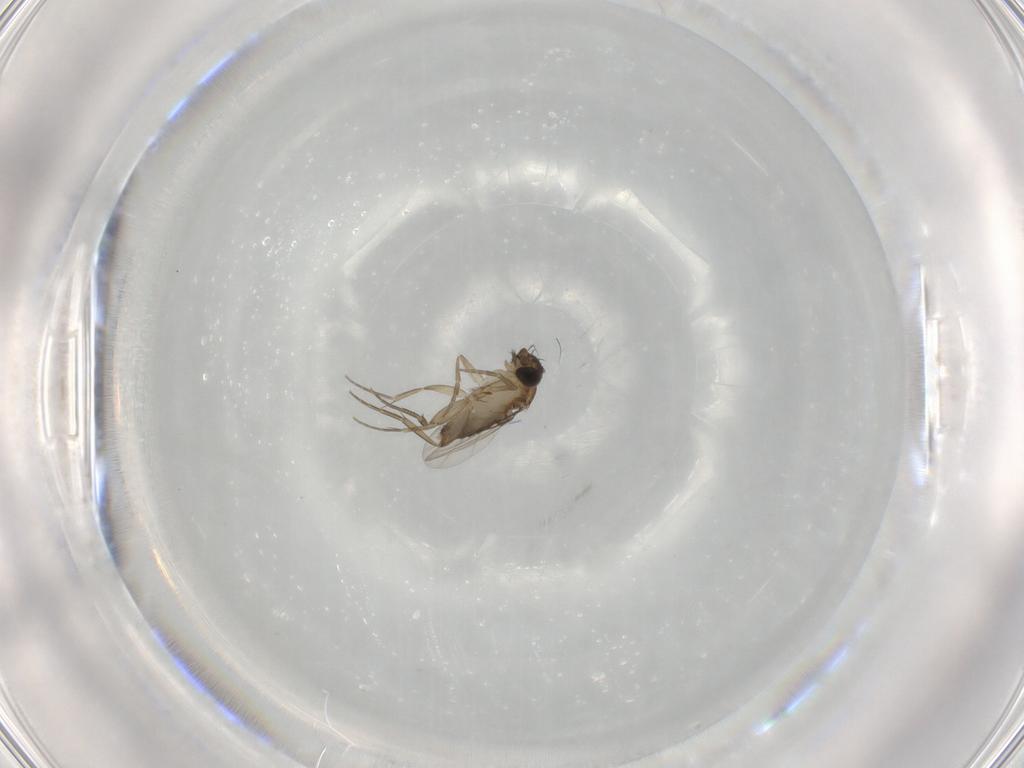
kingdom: Animalia
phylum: Arthropoda
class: Insecta
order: Diptera
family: Phoridae
